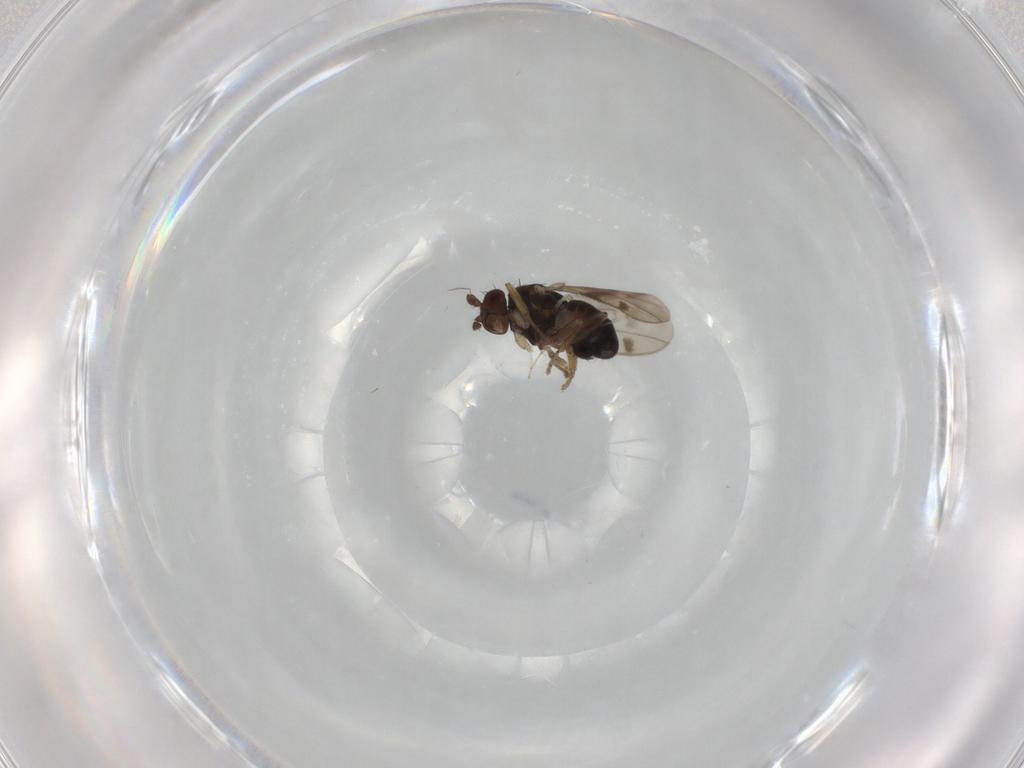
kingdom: Animalia
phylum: Arthropoda
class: Insecta
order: Diptera
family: Sphaeroceridae
